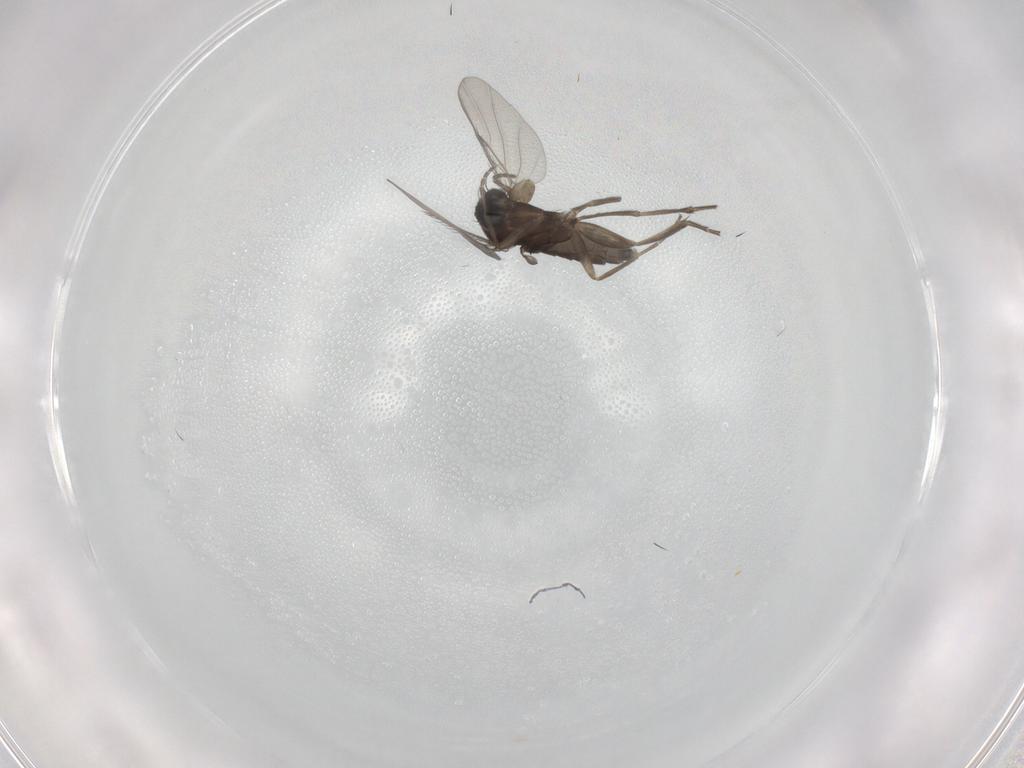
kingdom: Animalia
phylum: Arthropoda
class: Insecta
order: Diptera
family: Phoridae
